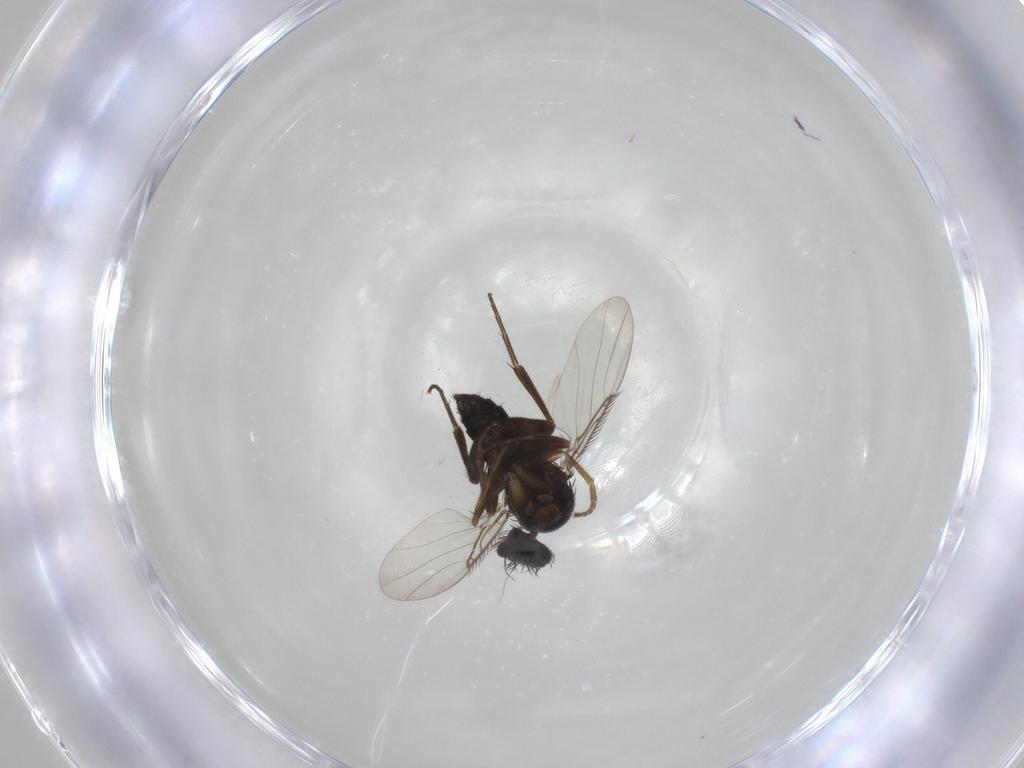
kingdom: Animalia
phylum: Arthropoda
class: Insecta
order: Diptera
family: Phoridae
